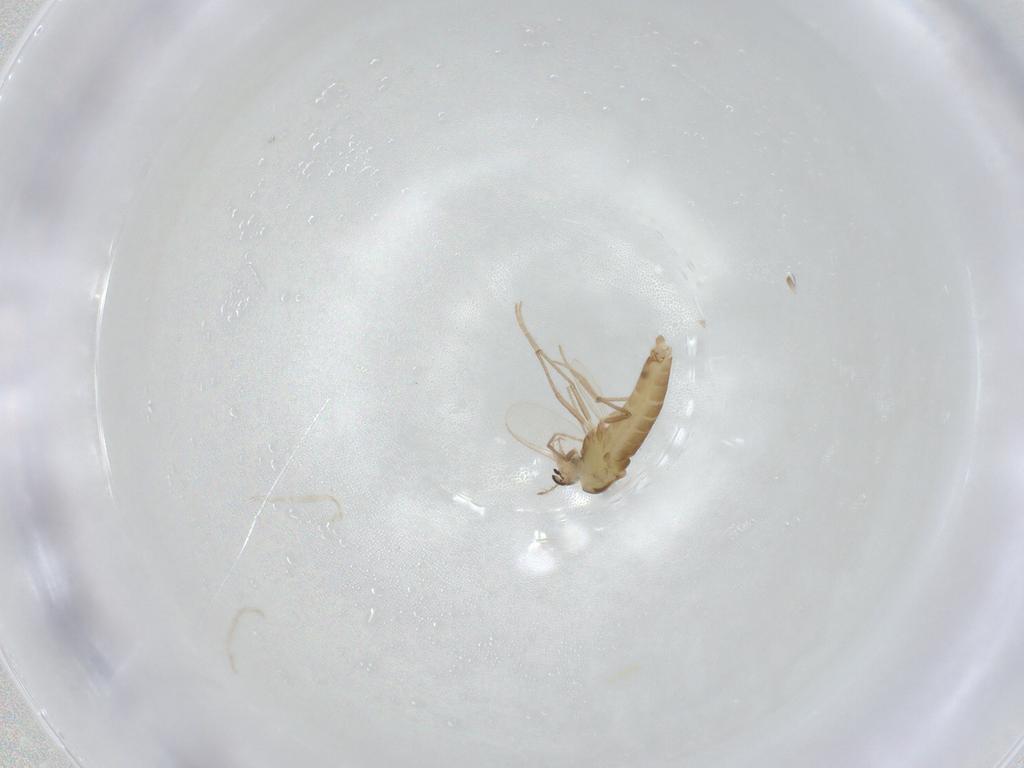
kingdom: Animalia
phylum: Arthropoda
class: Insecta
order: Diptera
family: Chironomidae
